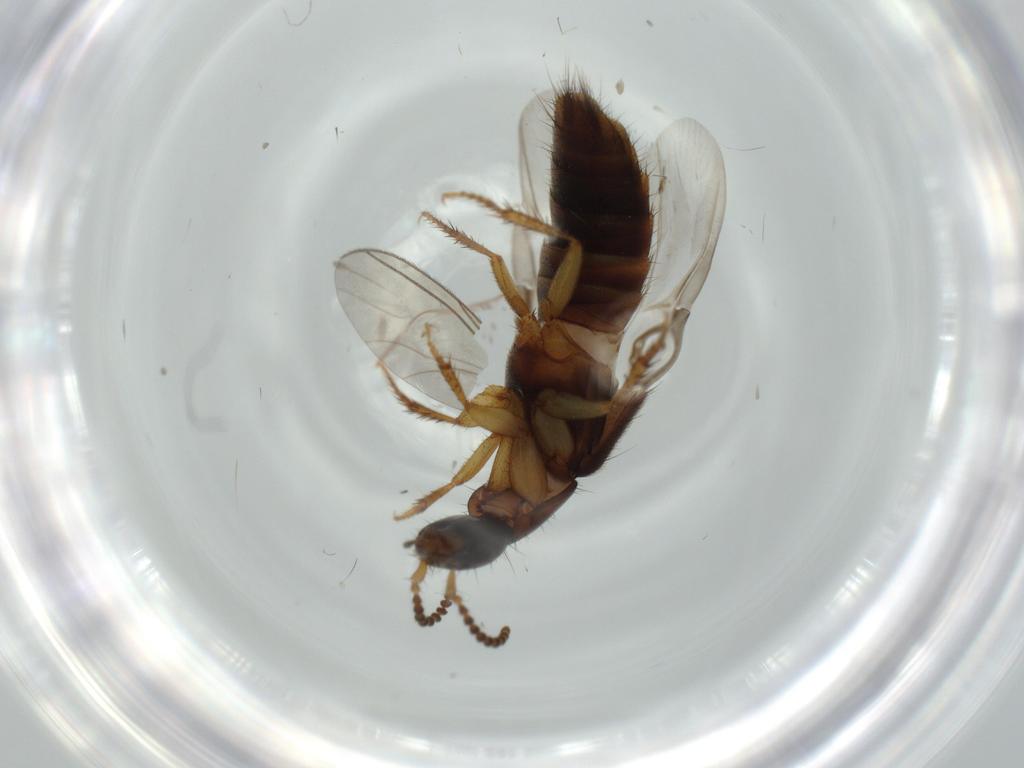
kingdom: Animalia
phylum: Arthropoda
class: Insecta
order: Coleoptera
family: Staphylinidae
